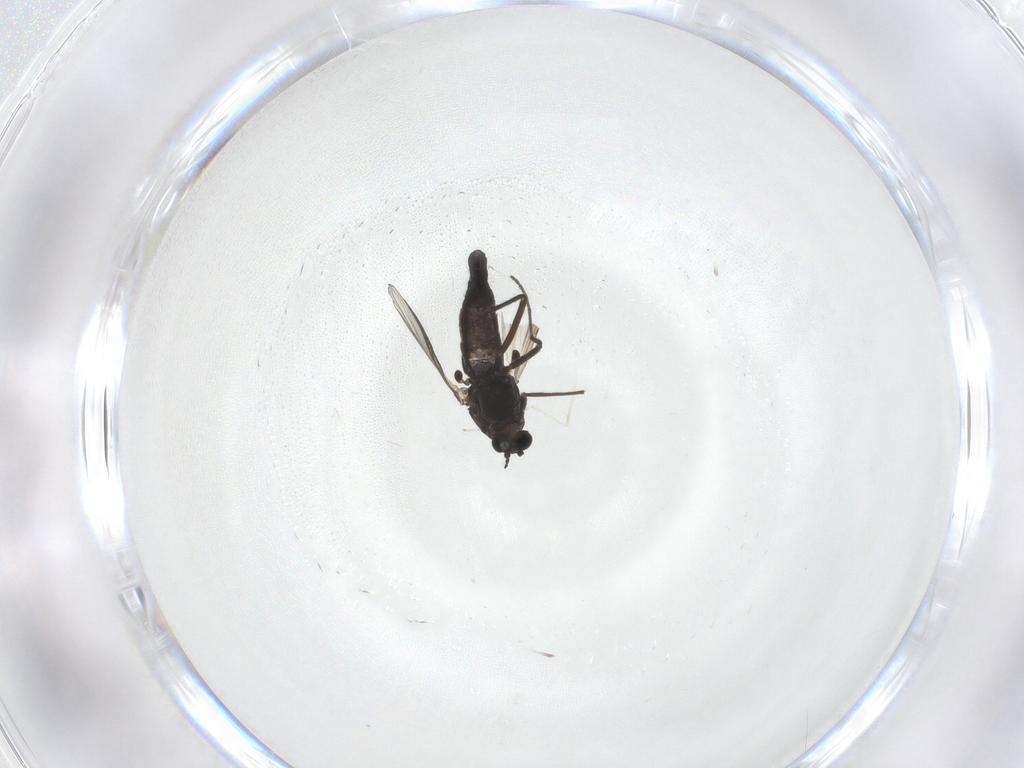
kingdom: Animalia
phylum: Arthropoda
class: Insecta
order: Diptera
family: Chironomidae
